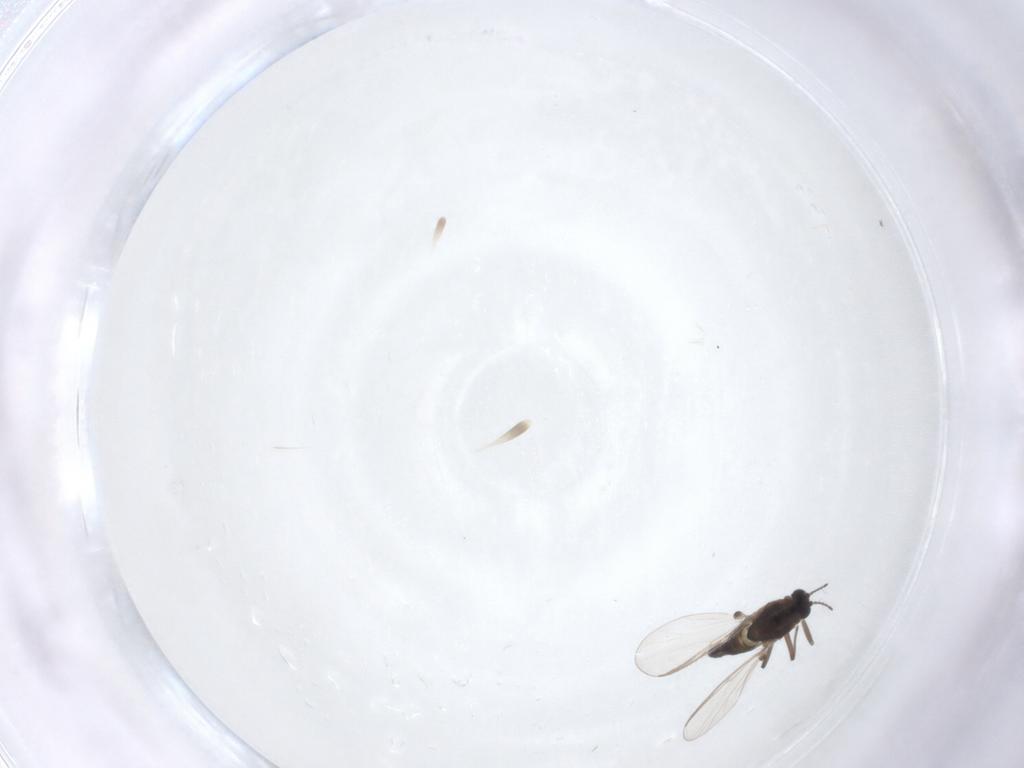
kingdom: Animalia
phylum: Arthropoda
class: Insecta
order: Diptera
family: Chironomidae
